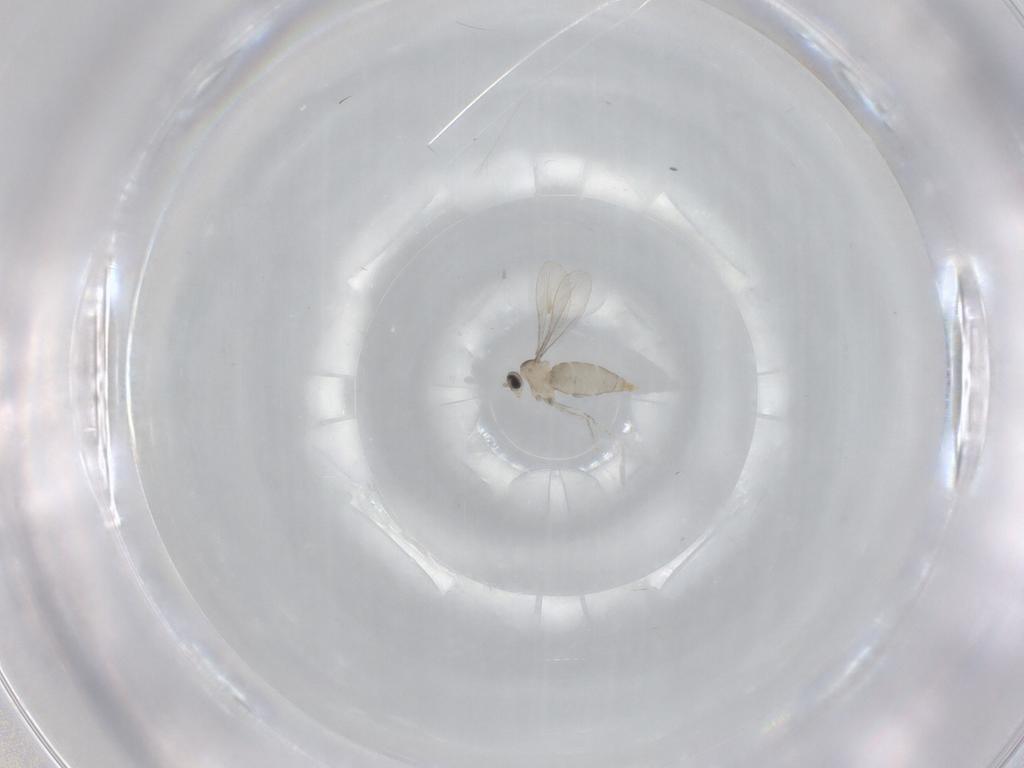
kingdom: Animalia
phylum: Arthropoda
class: Insecta
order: Diptera
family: Cecidomyiidae
